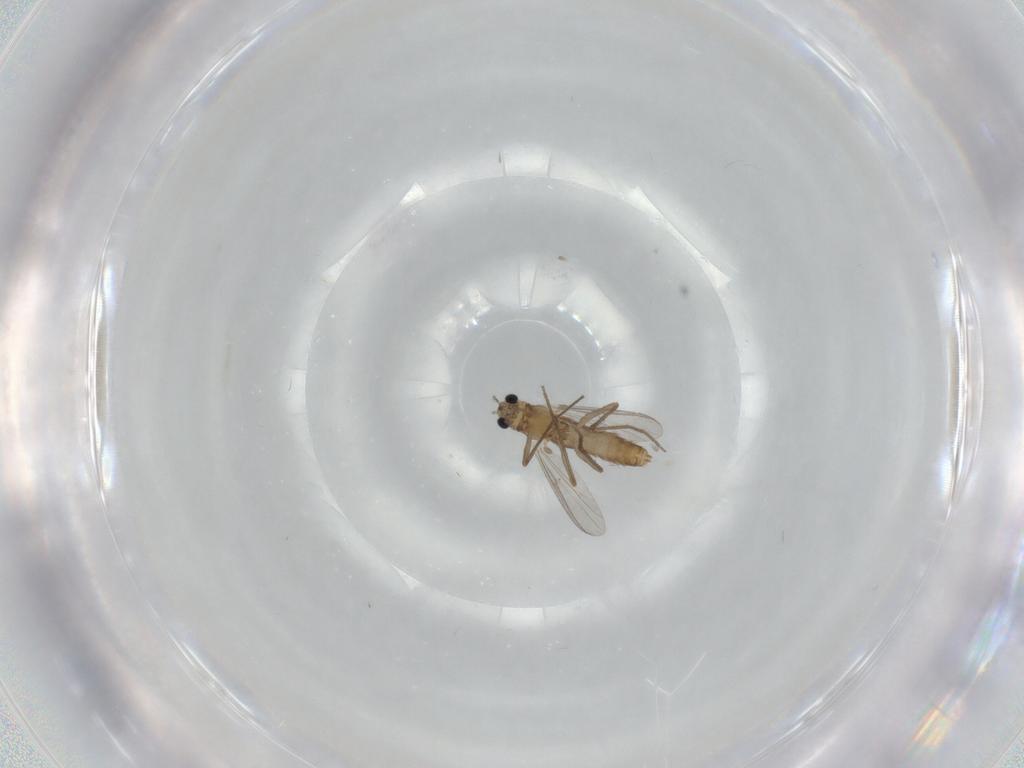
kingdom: Animalia
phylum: Arthropoda
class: Insecta
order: Diptera
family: Chironomidae
